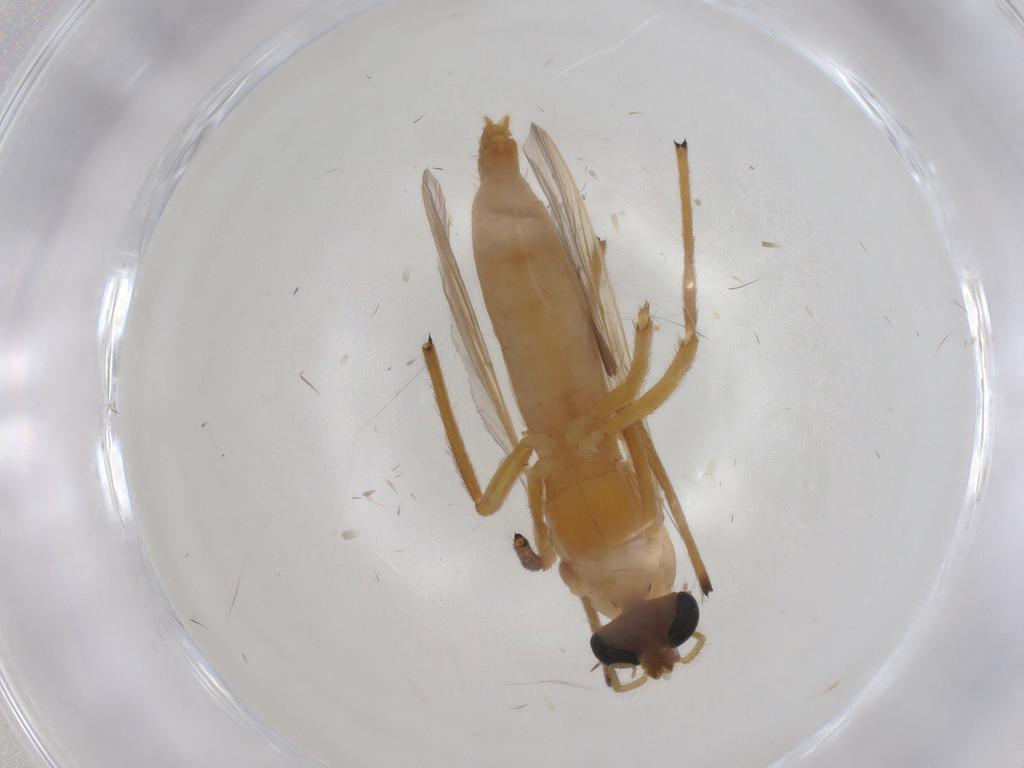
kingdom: Animalia
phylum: Arthropoda
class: Insecta
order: Diptera
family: Chironomidae
